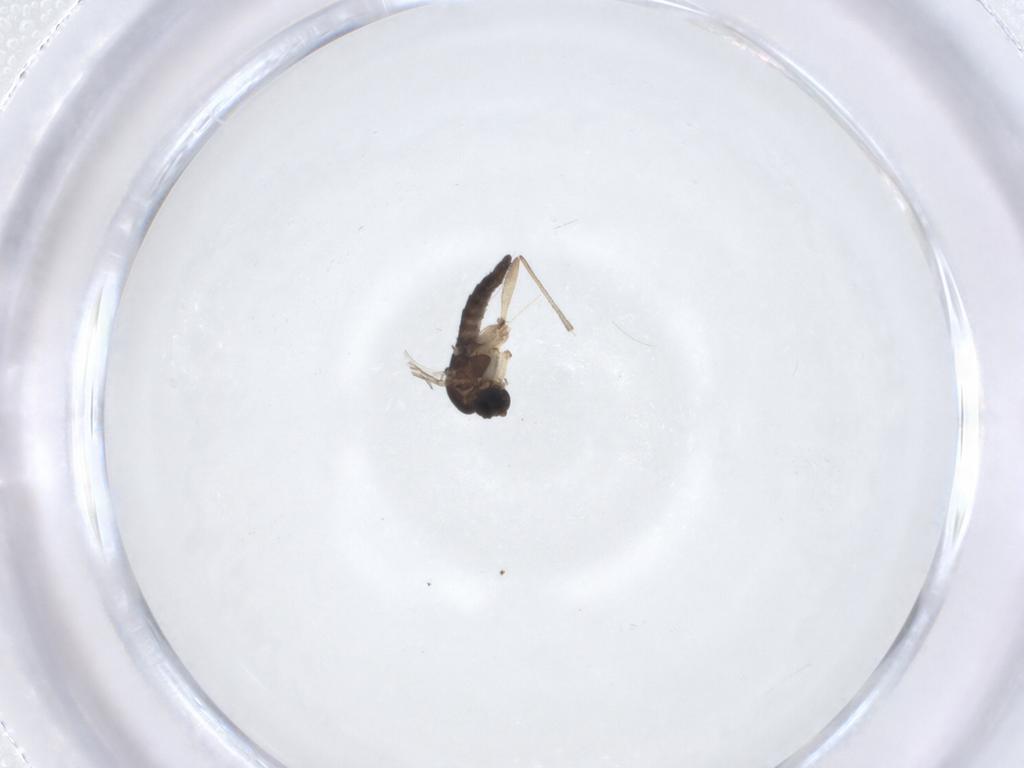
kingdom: Animalia
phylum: Arthropoda
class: Insecta
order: Diptera
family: Sciaridae
